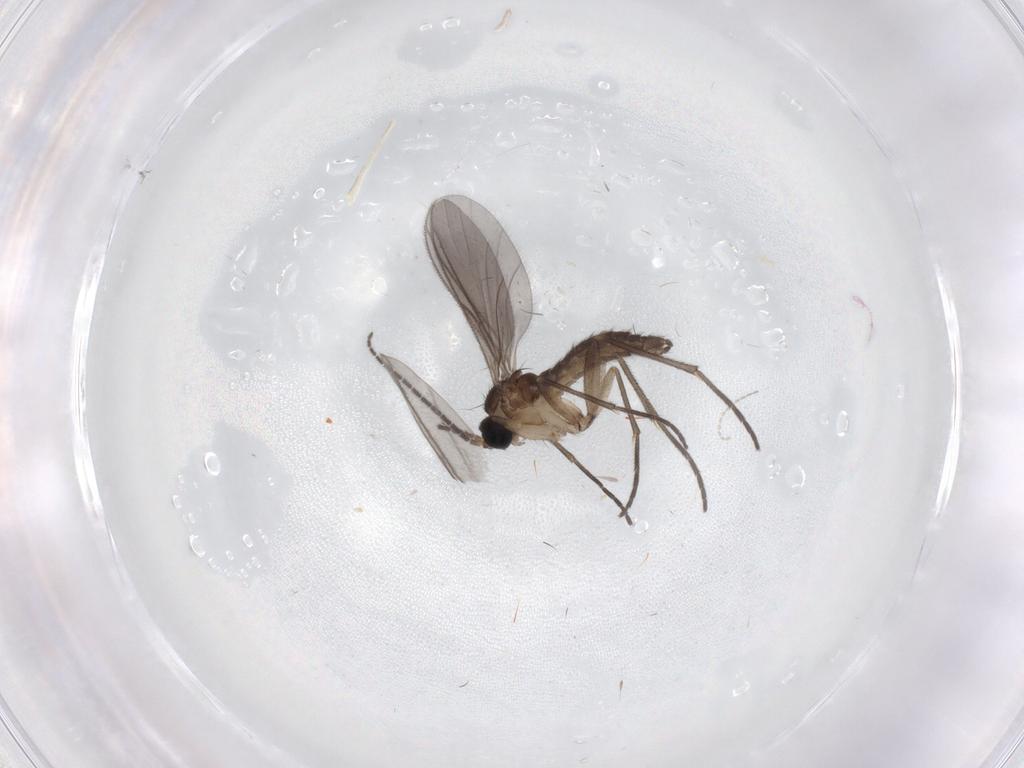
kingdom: Animalia
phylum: Arthropoda
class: Insecta
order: Diptera
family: Sciaridae
